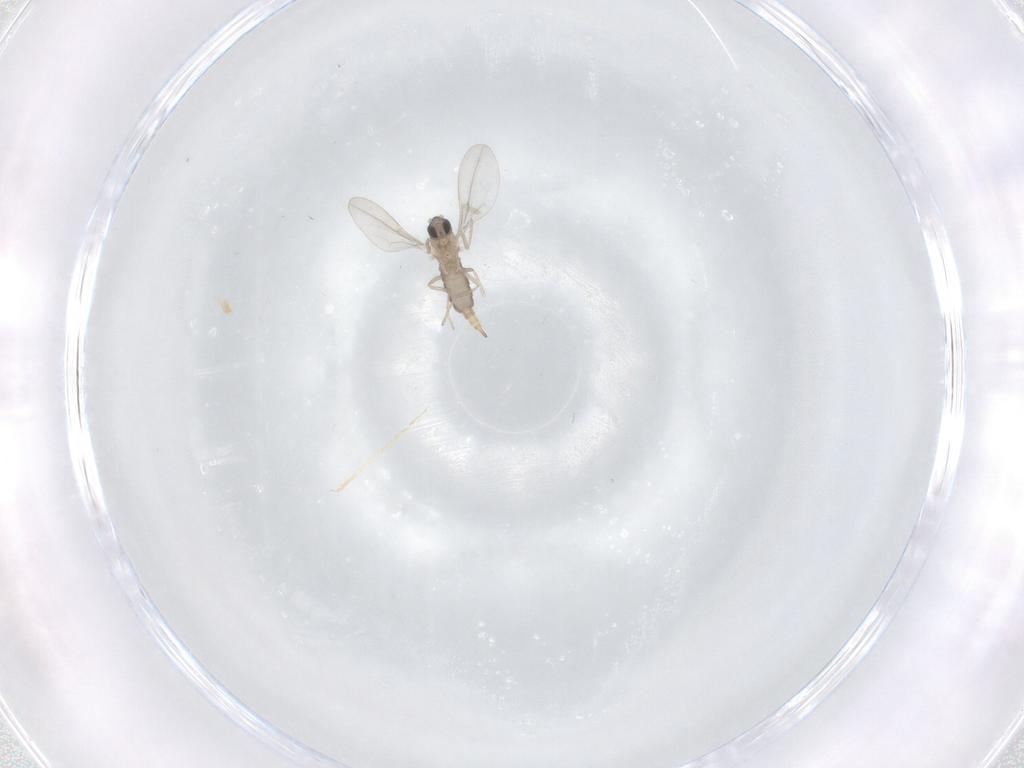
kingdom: Animalia
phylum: Arthropoda
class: Insecta
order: Diptera
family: Cecidomyiidae
